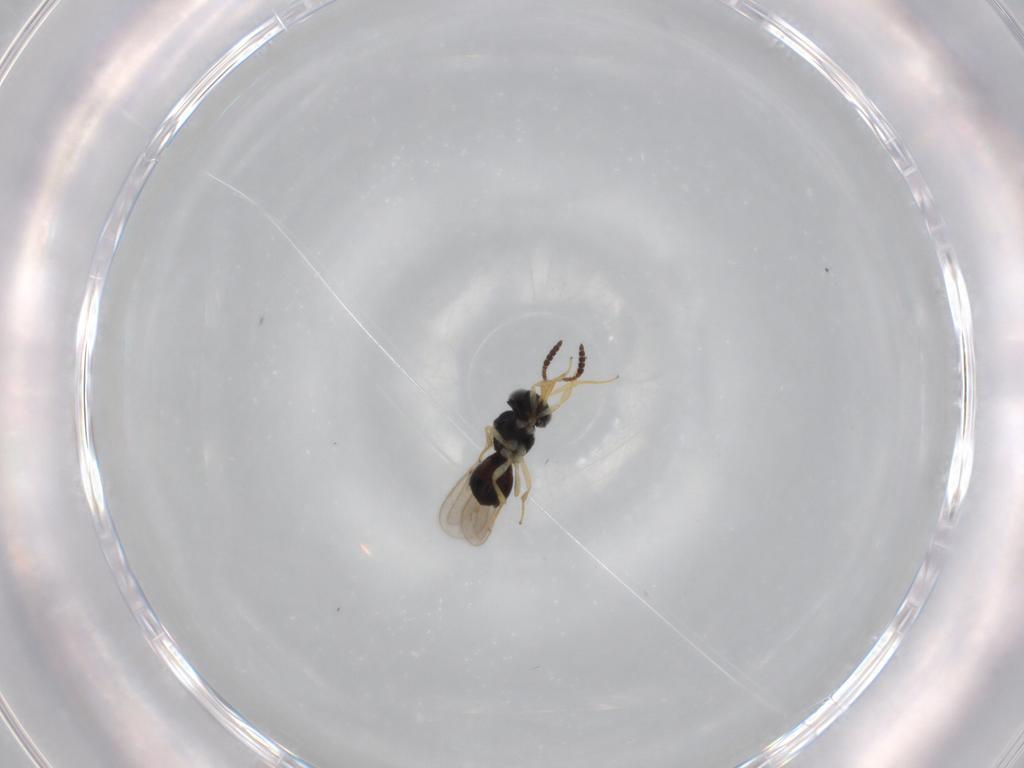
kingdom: Animalia
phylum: Arthropoda
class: Insecta
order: Hymenoptera
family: Scelionidae
